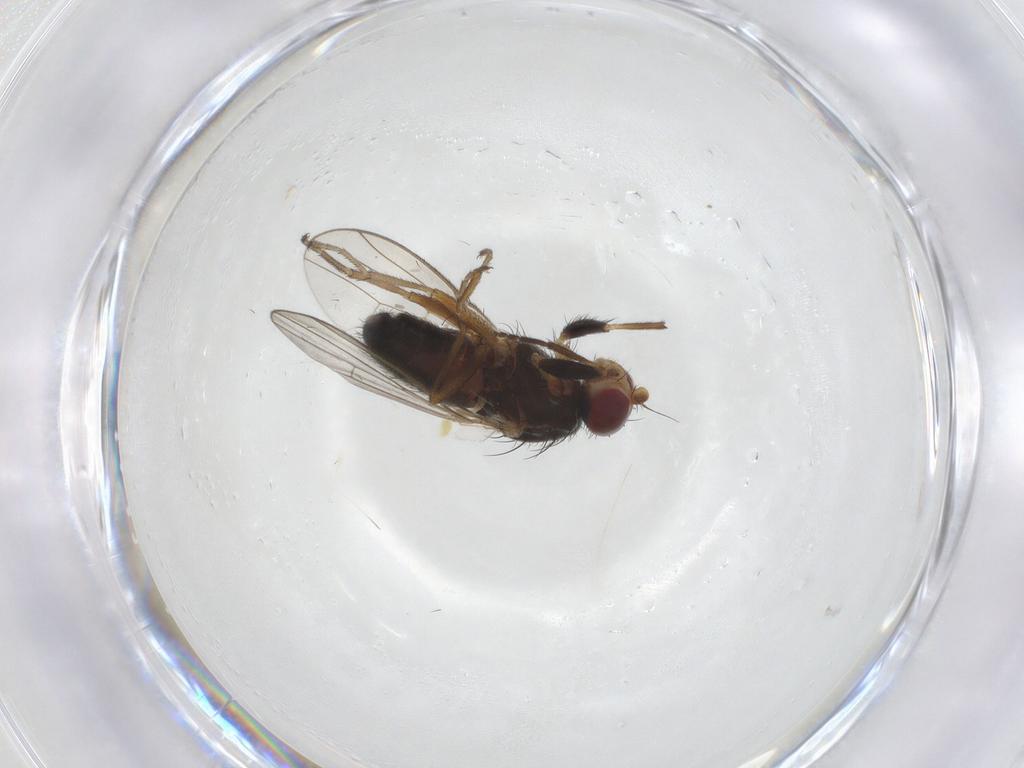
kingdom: Animalia
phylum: Arthropoda
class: Insecta
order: Diptera
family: Heleomyzidae
